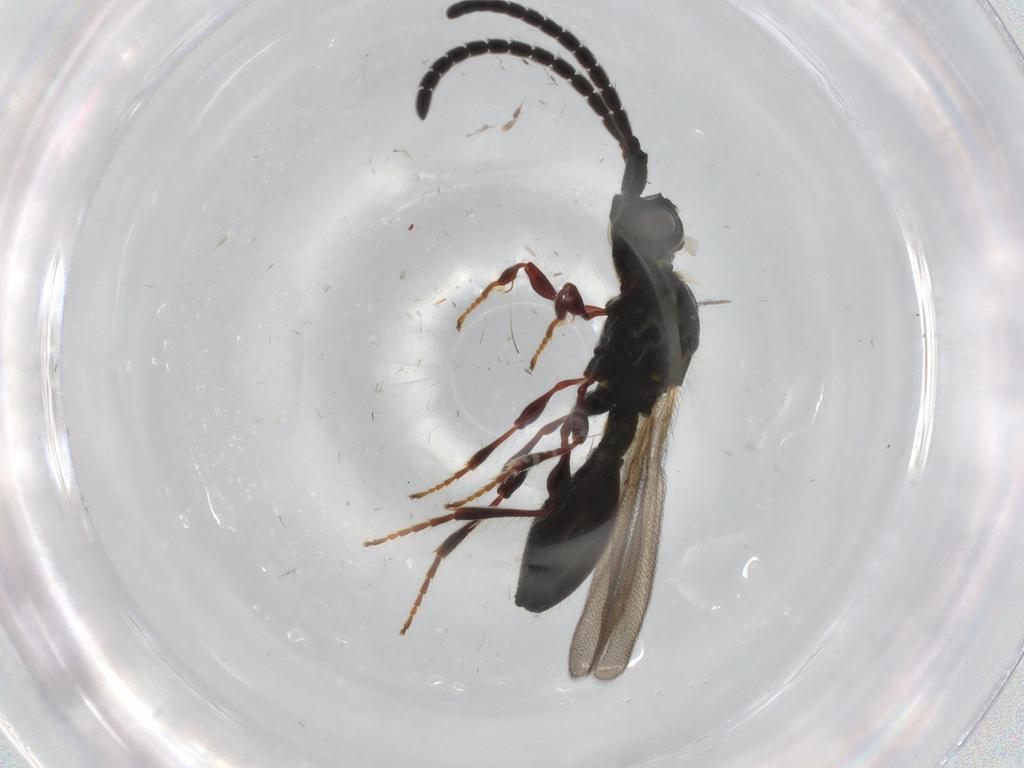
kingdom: Animalia
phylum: Arthropoda
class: Insecta
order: Hymenoptera
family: Diapriidae
